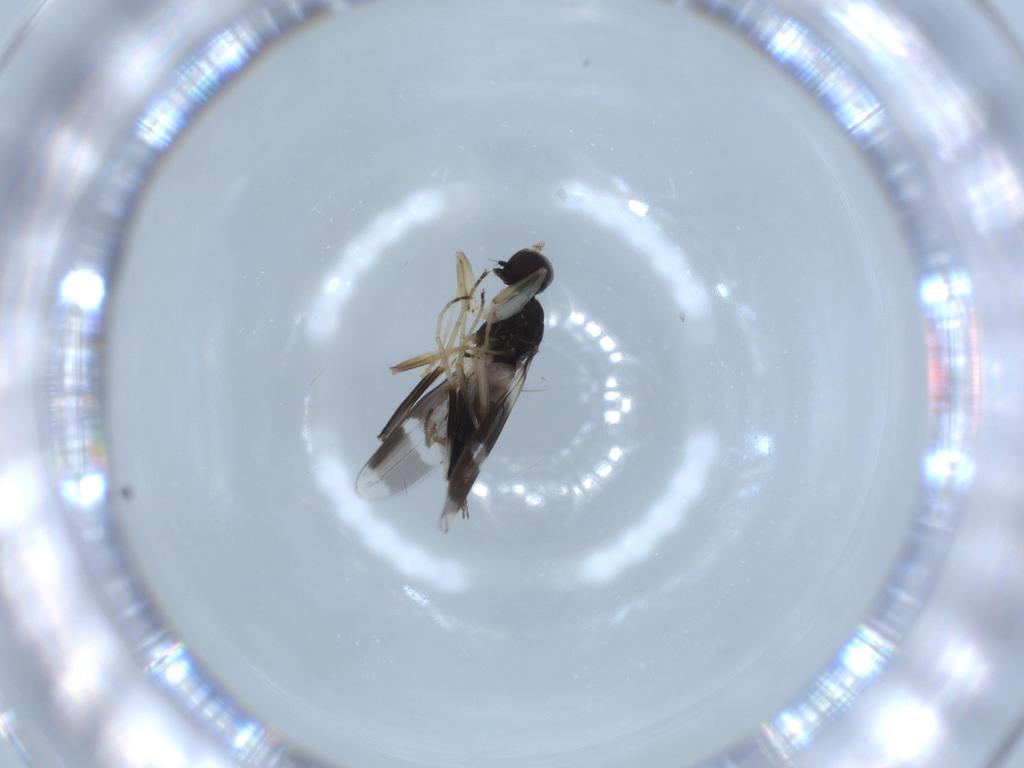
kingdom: Animalia
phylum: Arthropoda
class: Insecta
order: Diptera
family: Hybotidae
